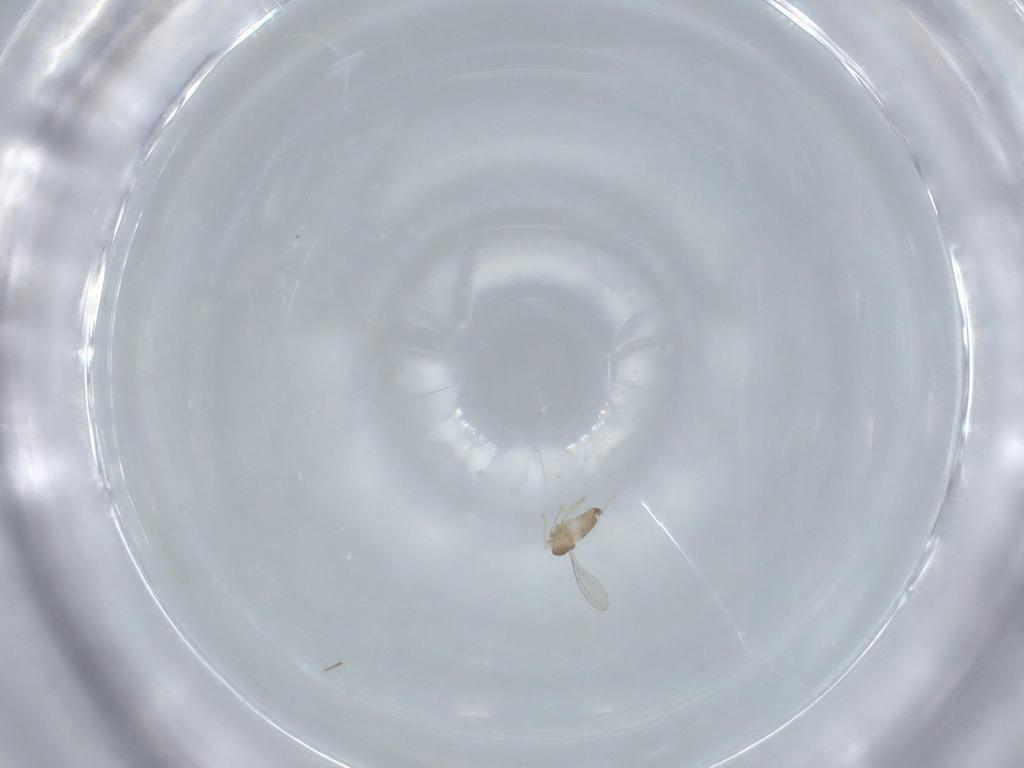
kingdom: Animalia
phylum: Arthropoda
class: Insecta
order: Diptera
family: Cecidomyiidae
